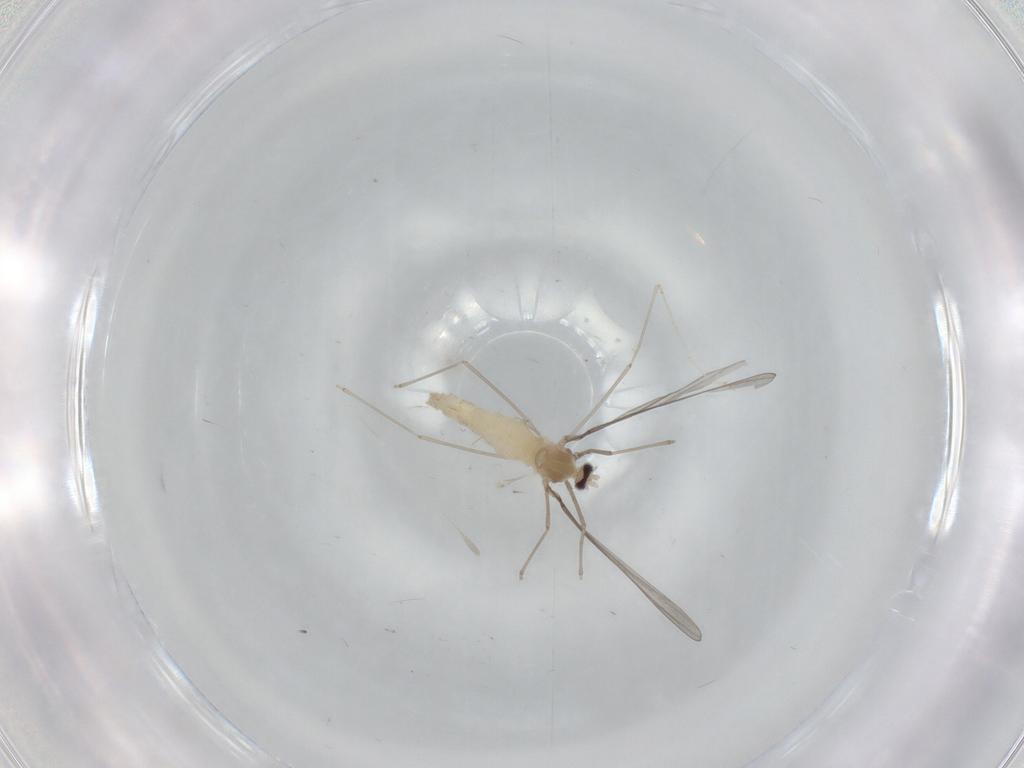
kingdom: Animalia
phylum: Arthropoda
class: Insecta
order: Diptera
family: Cecidomyiidae
